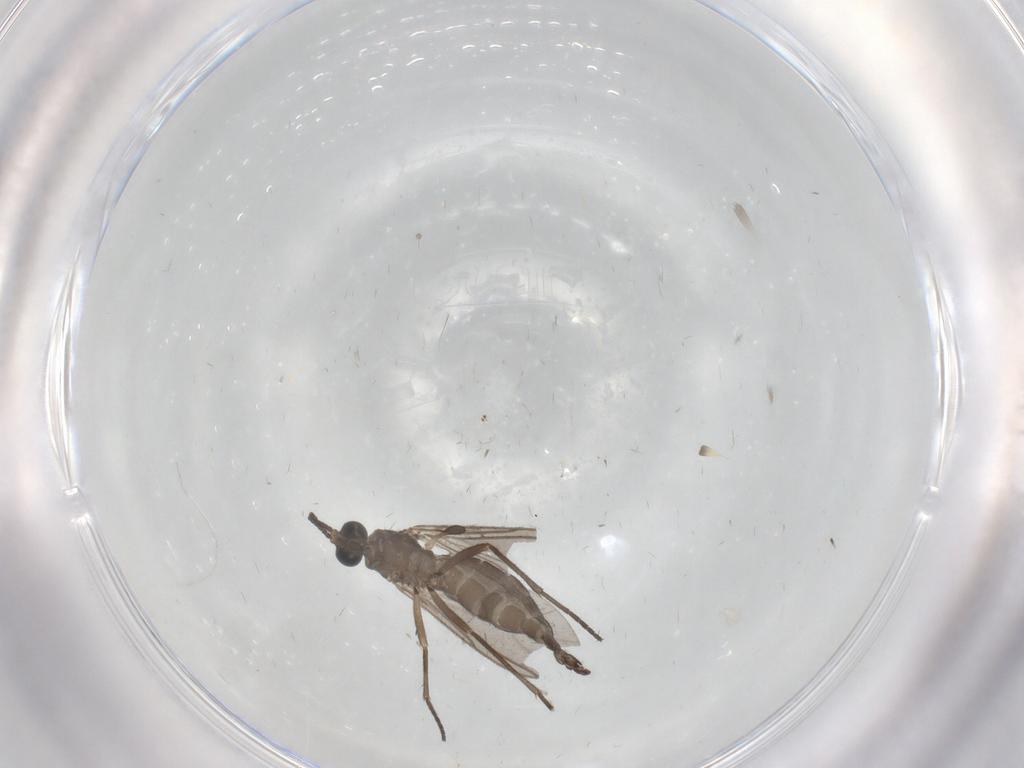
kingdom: Animalia
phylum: Arthropoda
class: Insecta
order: Diptera
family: Sciaridae
